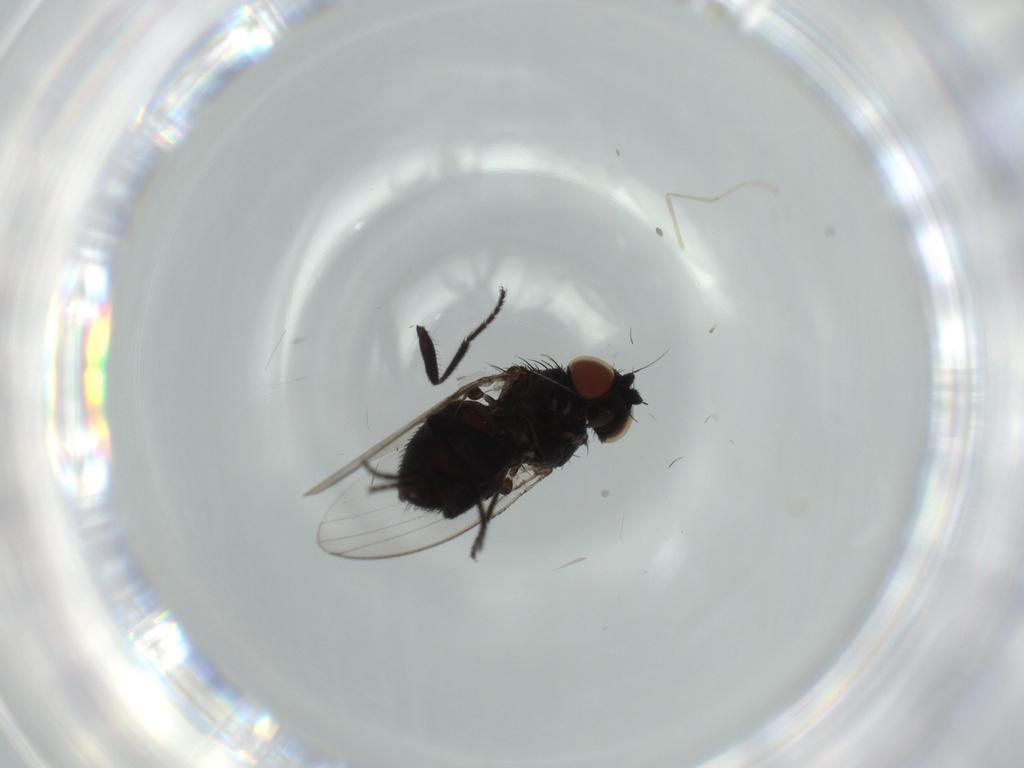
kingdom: Animalia
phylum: Arthropoda
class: Insecta
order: Diptera
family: Milichiidae
